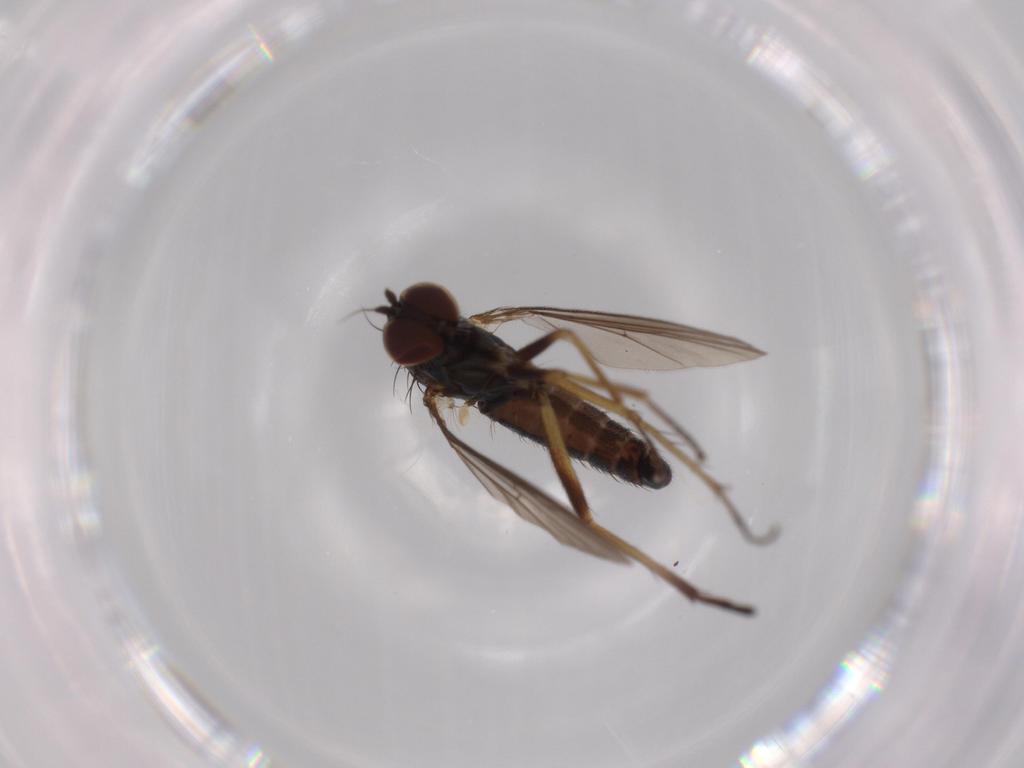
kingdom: Animalia
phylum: Arthropoda
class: Insecta
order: Diptera
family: Dolichopodidae
